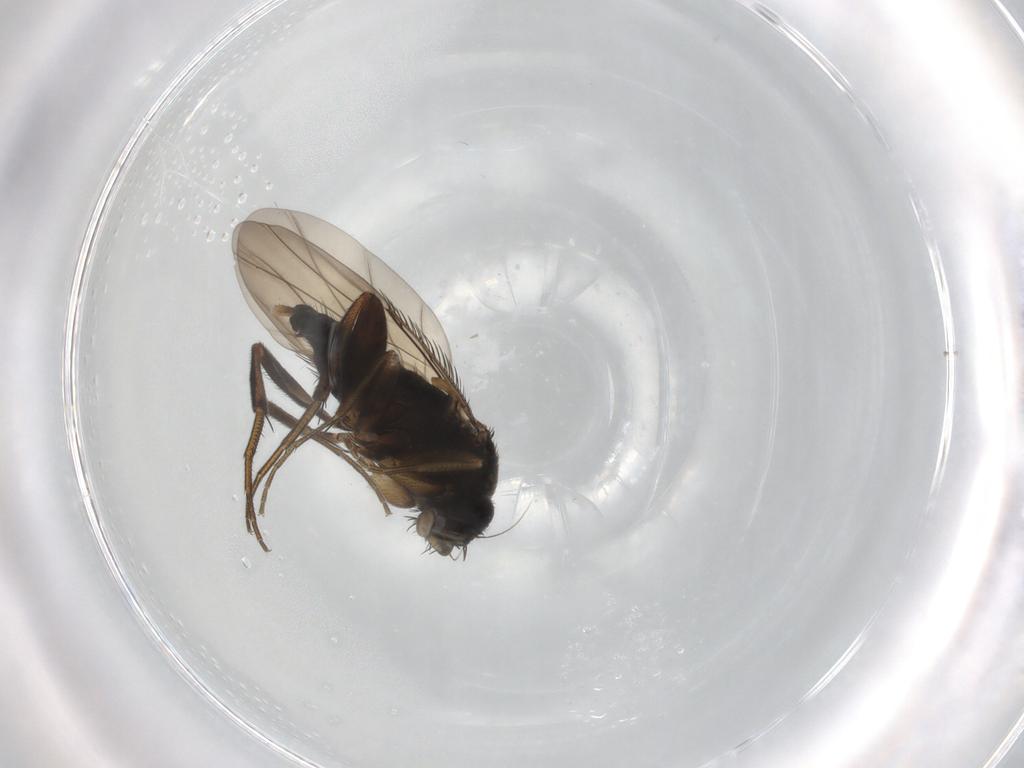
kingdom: Animalia
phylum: Arthropoda
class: Insecta
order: Diptera
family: Phoridae
